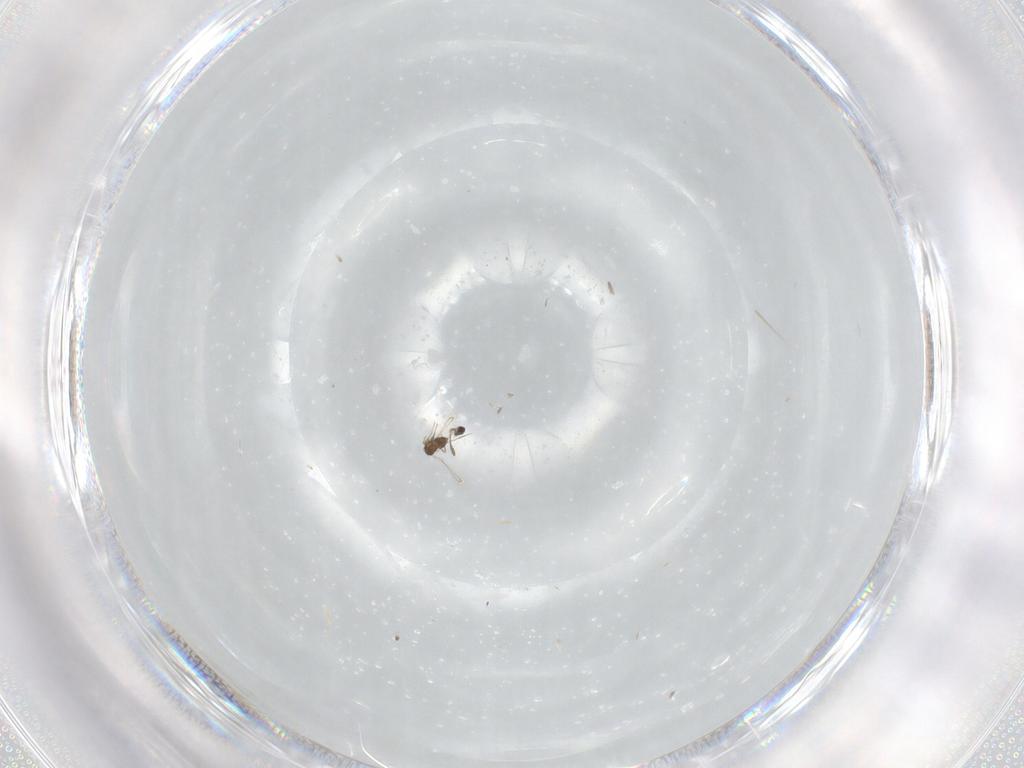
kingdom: Animalia
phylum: Arthropoda
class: Insecta
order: Hymenoptera
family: Mymaridae
